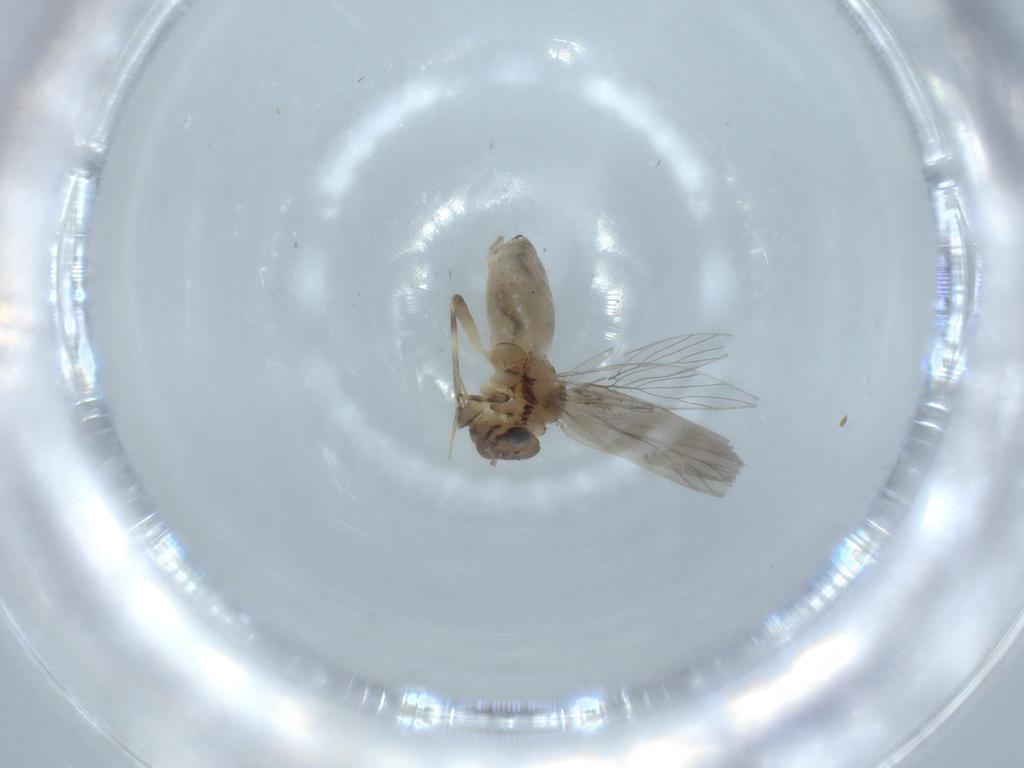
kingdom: Animalia
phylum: Arthropoda
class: Insecta
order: Psocodea
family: Lepidopsocidae
